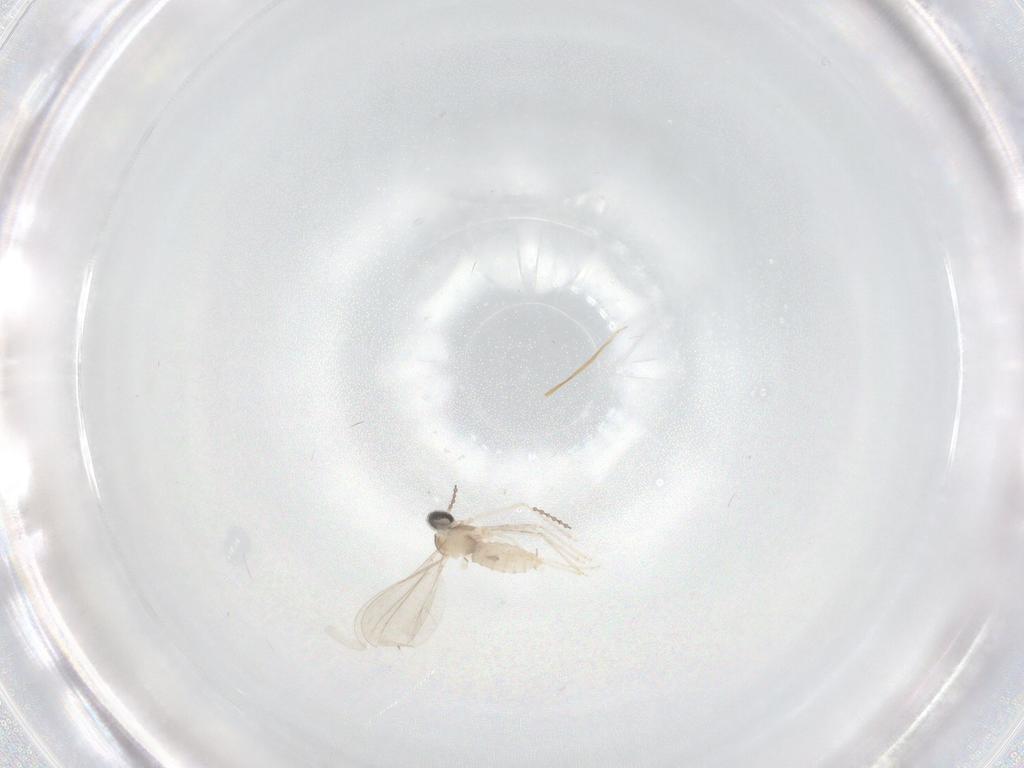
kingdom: Animalia
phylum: Arthropoda
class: Insecta
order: Diptera
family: Cecidomyiidae
